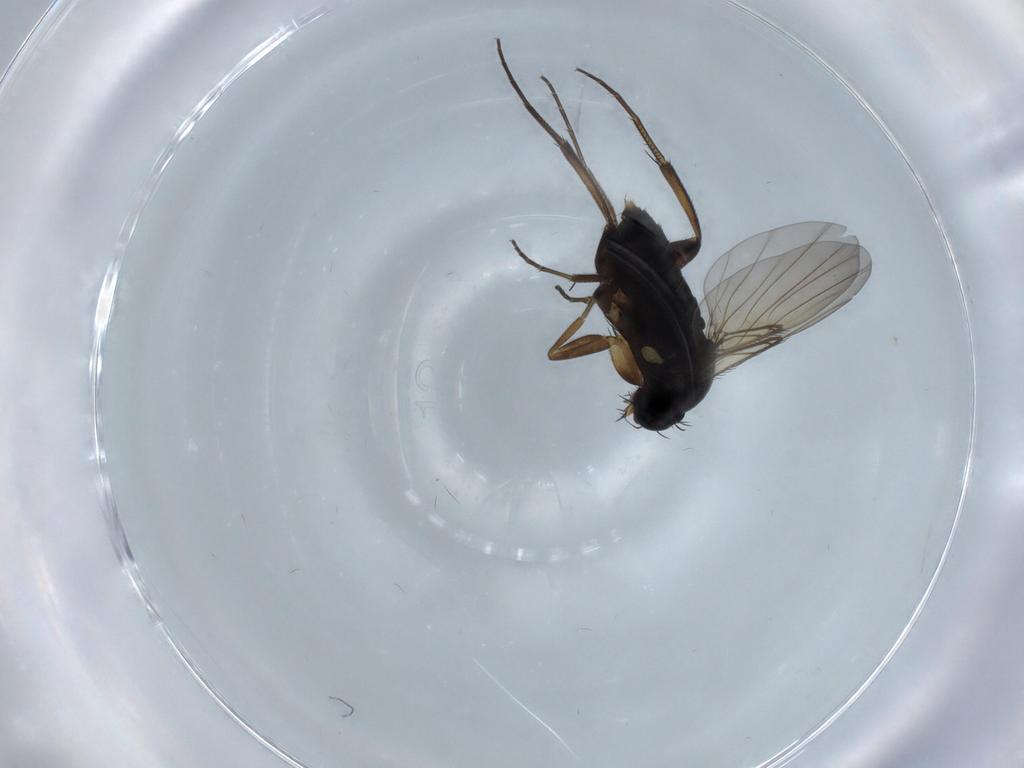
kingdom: Animalia
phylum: Arthropoda
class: Insecta
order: Diptera
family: Phoridae
